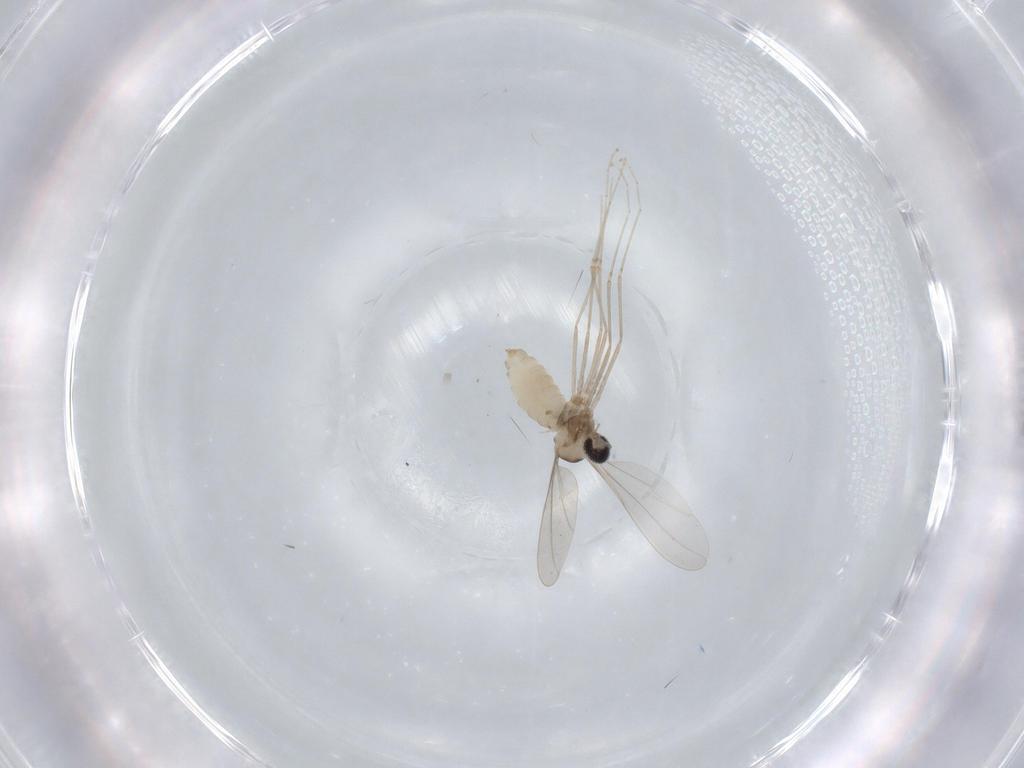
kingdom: Animalia
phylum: Arthropoda
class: Insecta
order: Diptera
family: Cecidomyiidae
